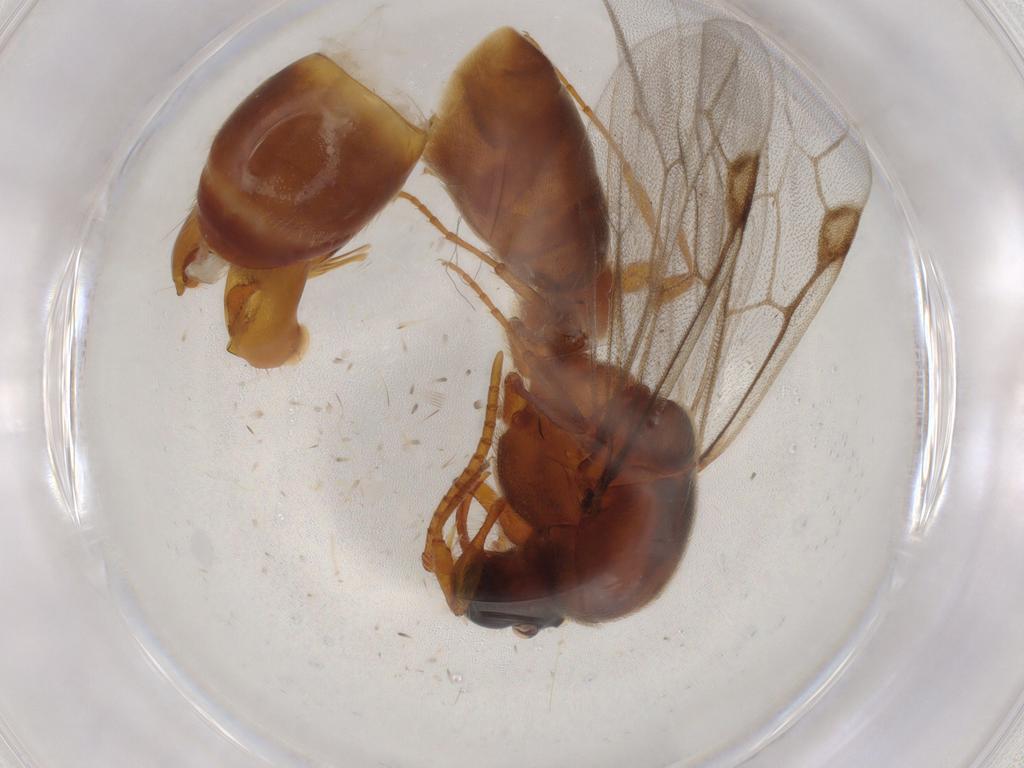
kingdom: Animalia
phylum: Arthropoda
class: Insecta
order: Hymenoptera
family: Formicidae
